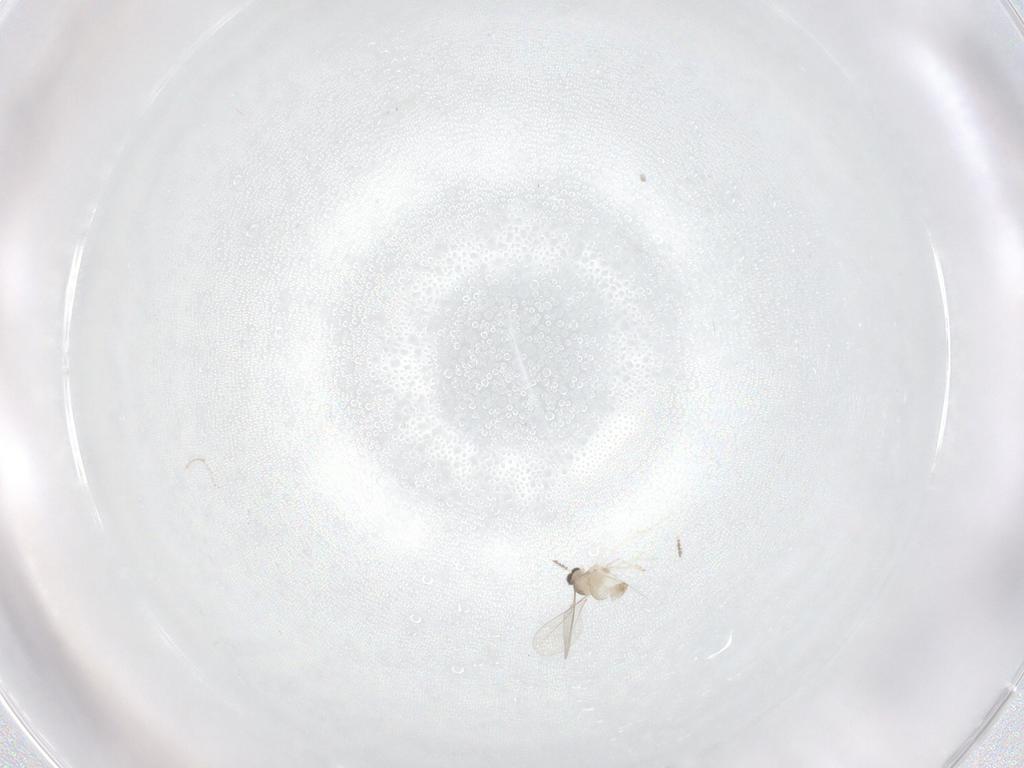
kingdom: Animalia
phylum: Arthropoda
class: Insecta
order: Diptera
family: Cecidomyiidae
